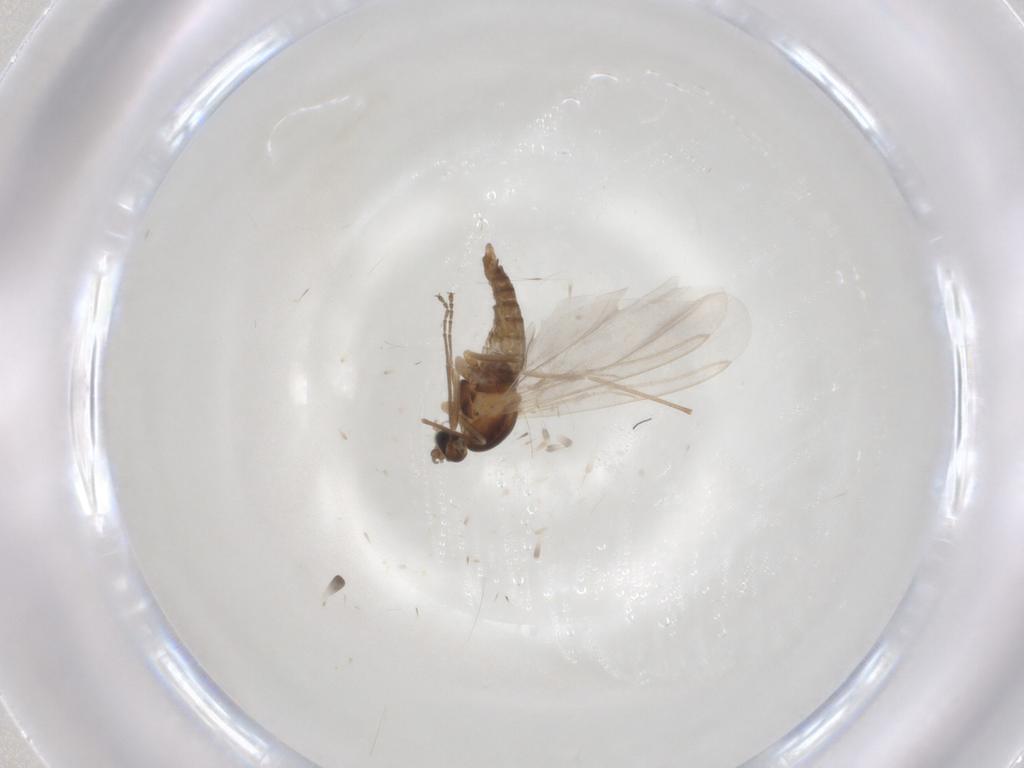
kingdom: Animalia
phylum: Arthropoda
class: Insecta
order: Diptera
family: Cecidomyiidae
